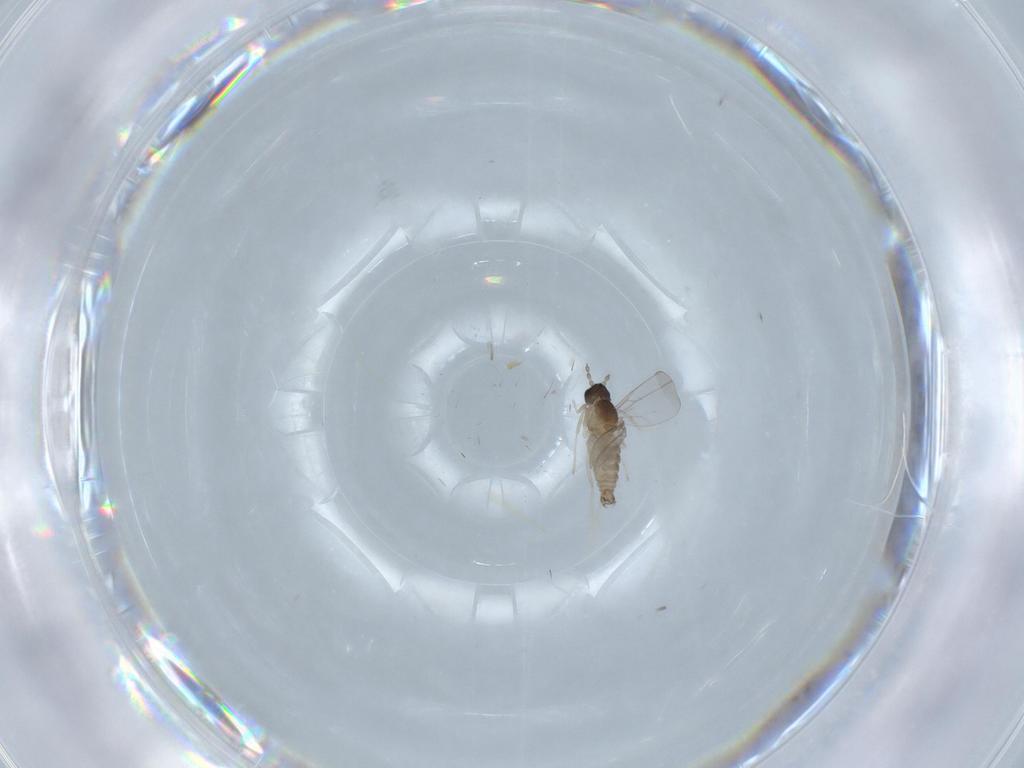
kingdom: Animalia
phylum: Arthropoda
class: Insecta
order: Diptera
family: Cecidomyiidae
